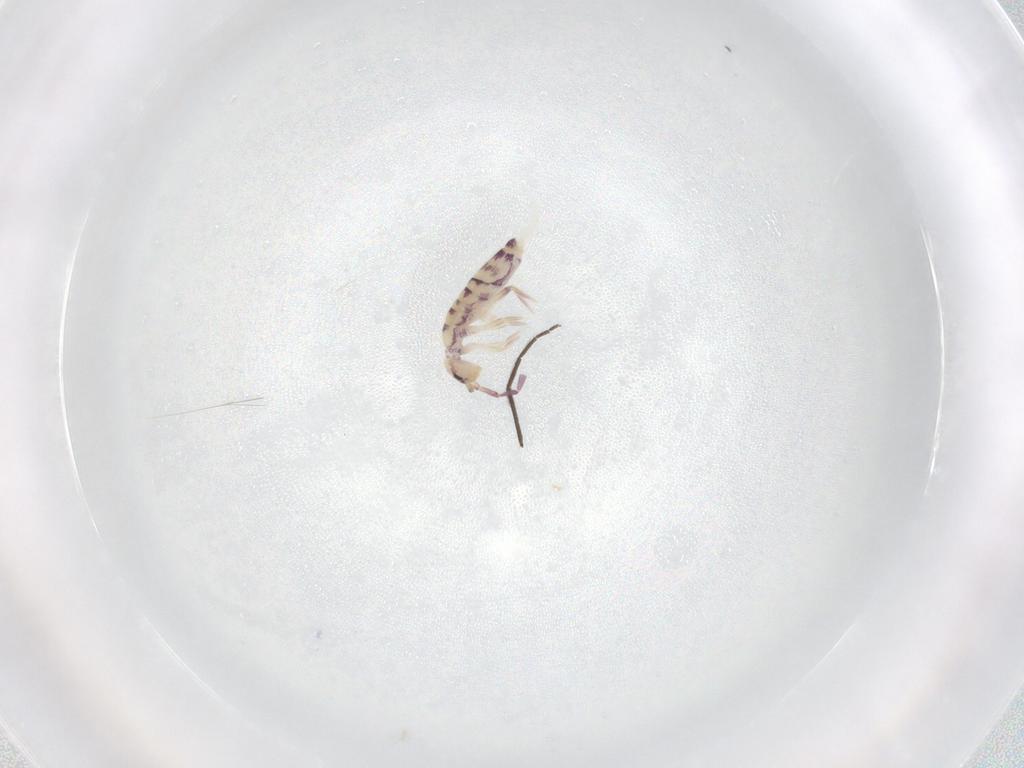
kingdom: Animalia
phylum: Arthropoda
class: Collembola
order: Entomobryomorpha
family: Entomobryidae
